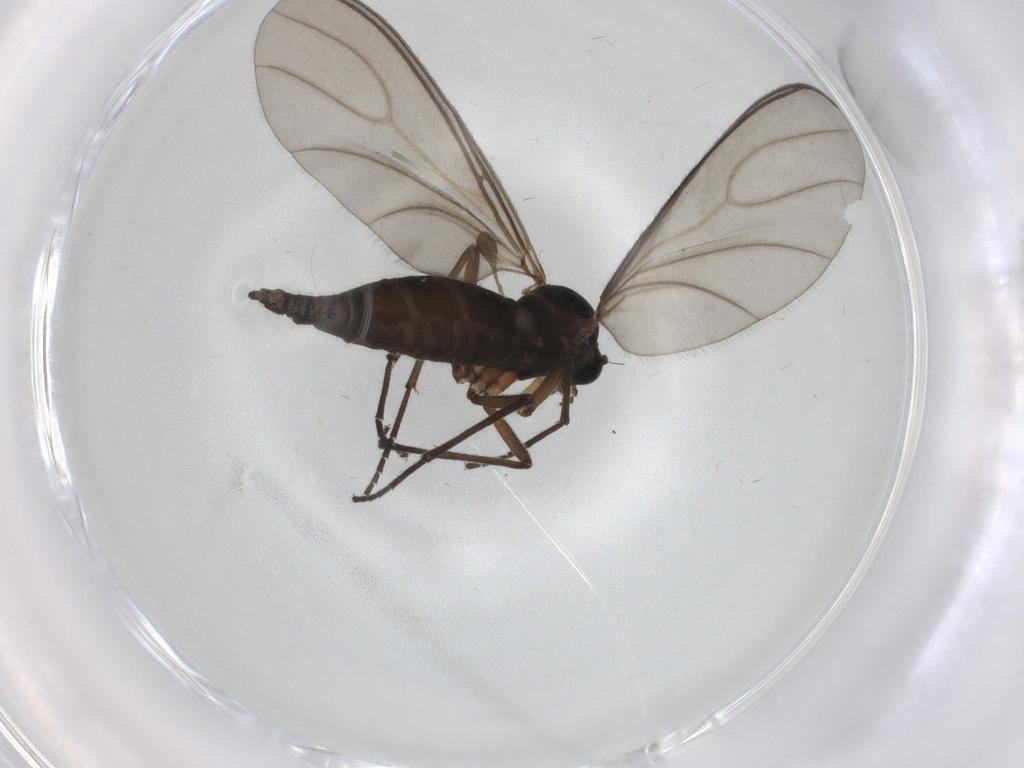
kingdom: Animalia
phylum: Arthropoda
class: Insecta
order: Diptera
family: Sciaridae
